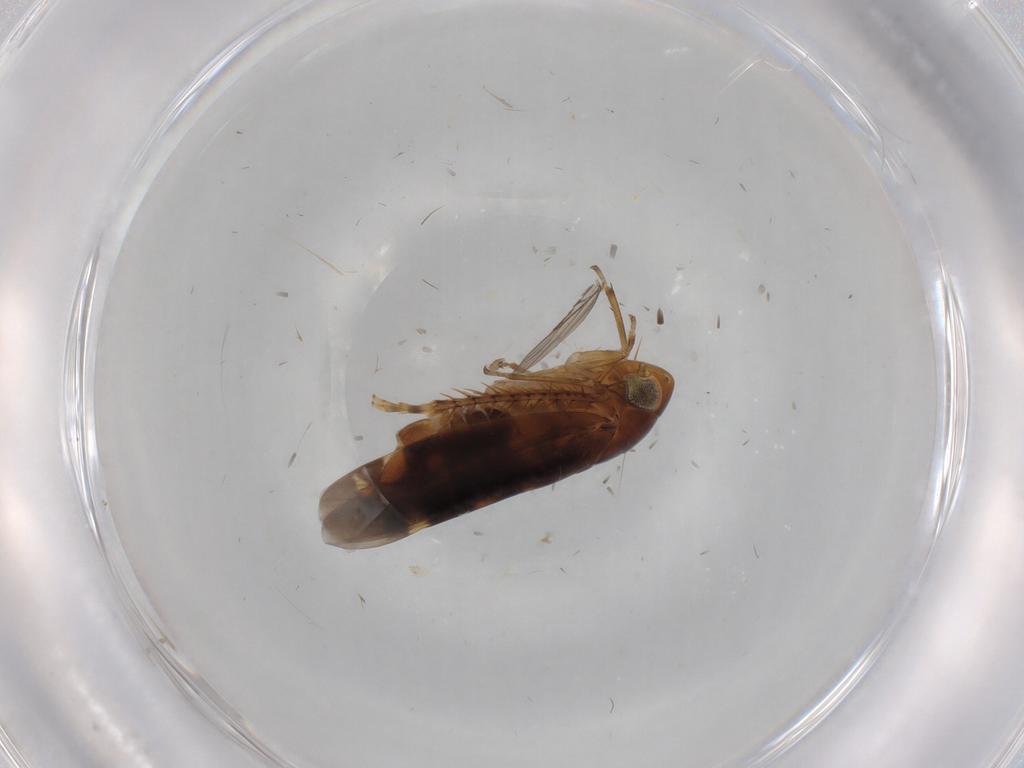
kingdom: Animalia
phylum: Arthropoda
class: Insecta
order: Hemiptera
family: Cicadellidae
